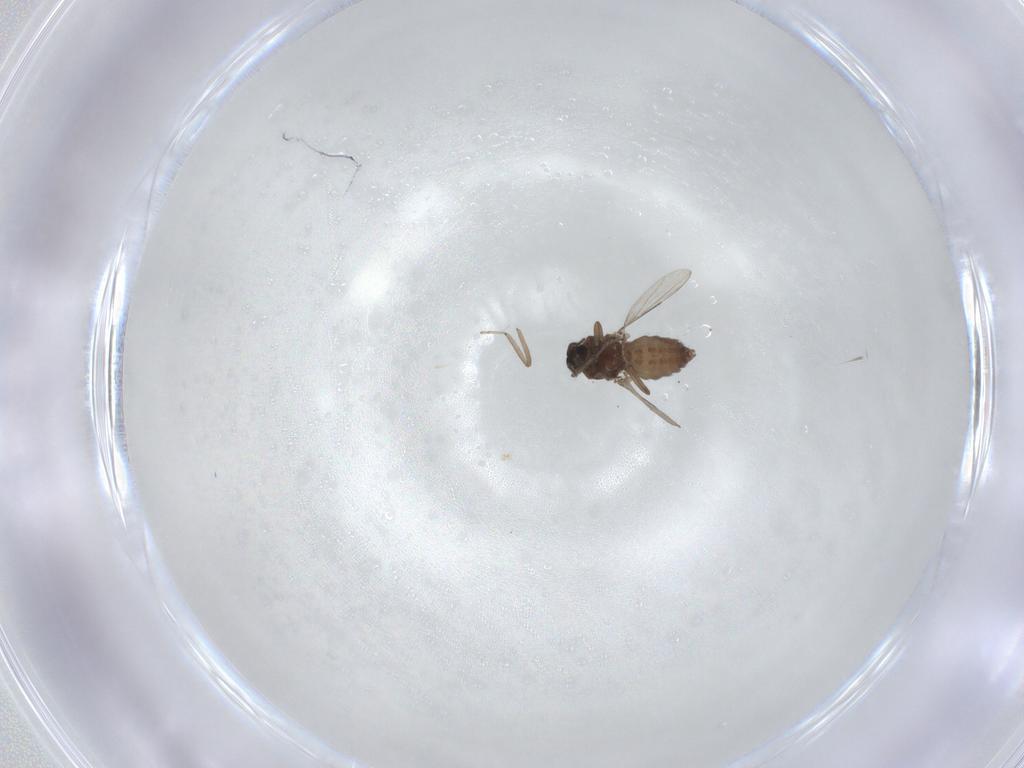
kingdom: Animalia
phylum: Arthropoda
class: Insecta
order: Diptera
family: Ceratopogonidae
